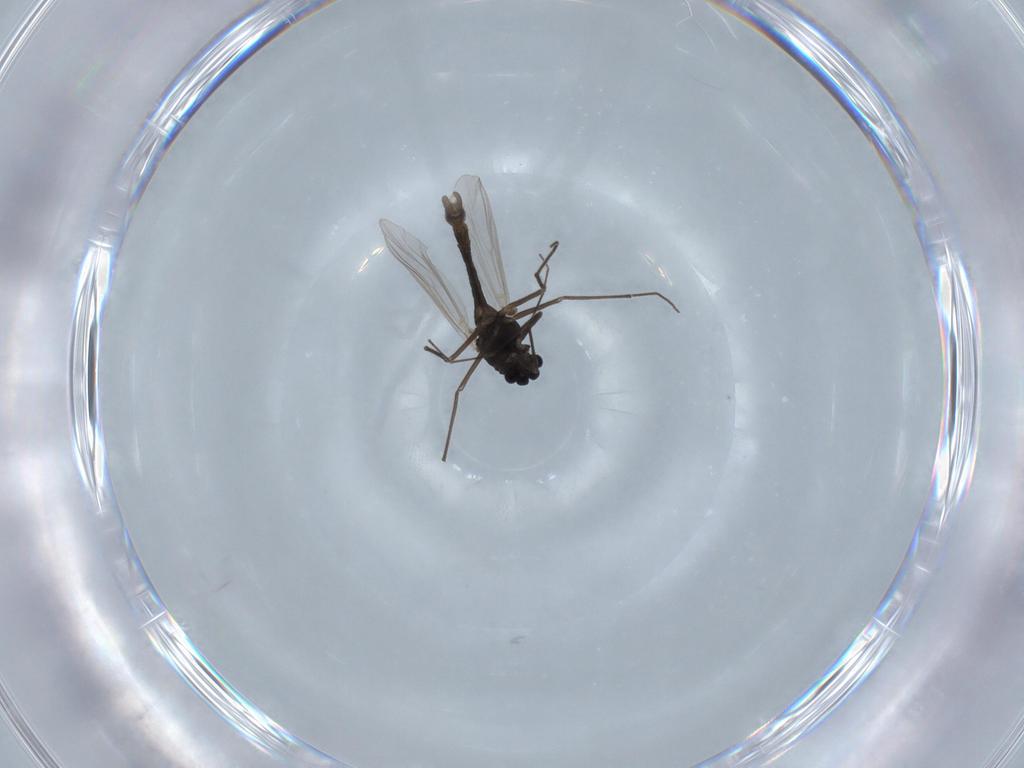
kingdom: Animalia
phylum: Arthropoda
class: Insecta
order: Diptera
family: Chironomidae
